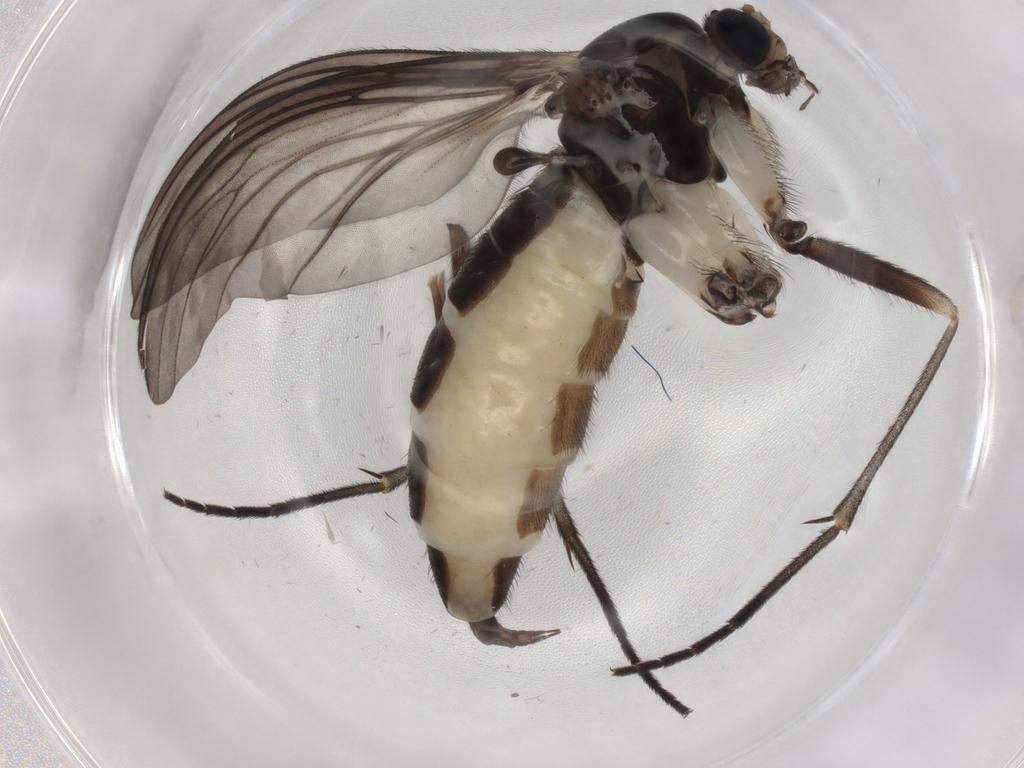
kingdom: Animalia
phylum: Arthropoda
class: Insecta
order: Diptera
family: Sciaridae
